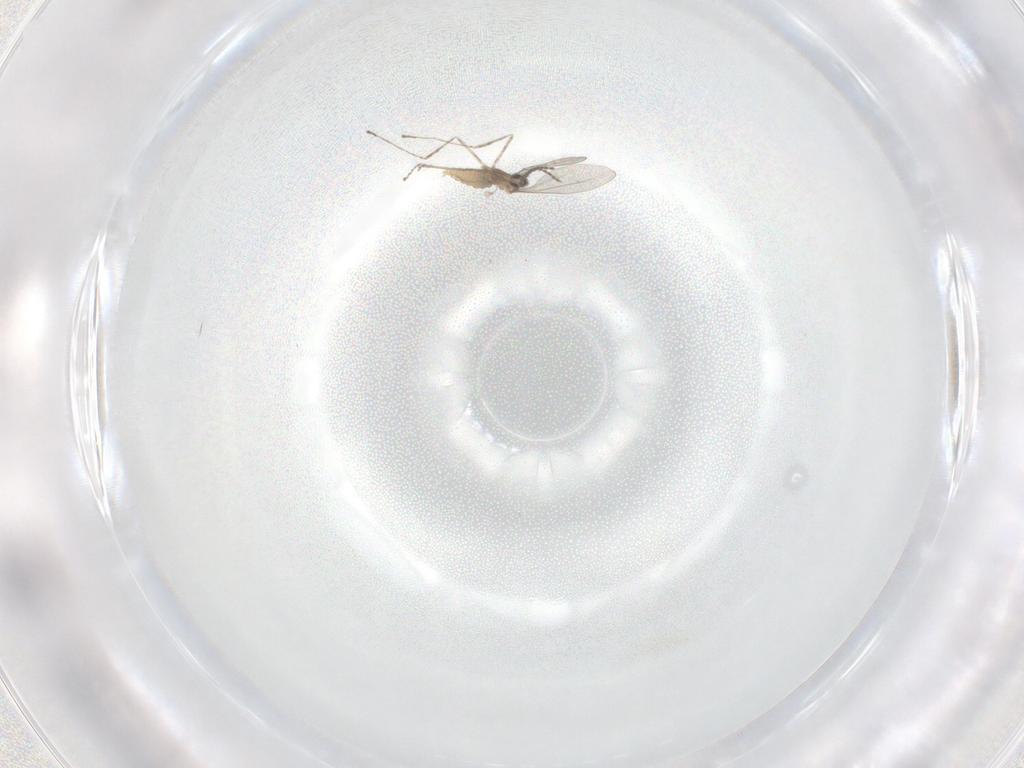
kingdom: Animalia
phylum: Arthropoda
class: Insecta
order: Diptera
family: Cecidomyiidae
